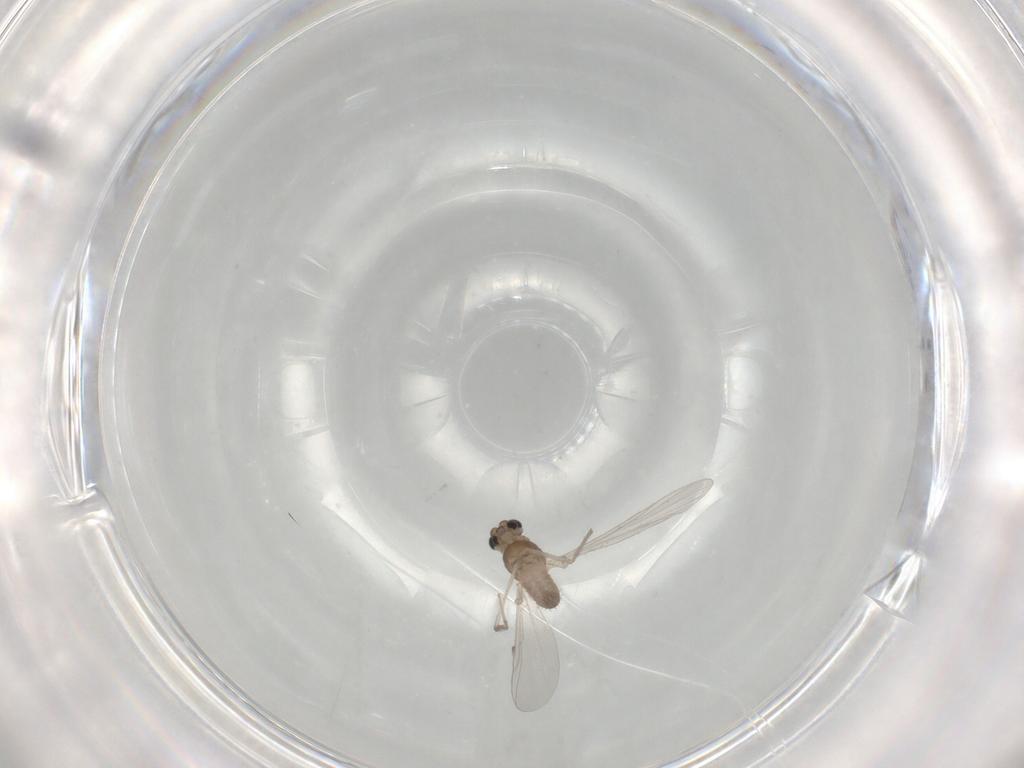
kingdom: Animalia
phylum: Arthropoda
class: Insecta
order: Diptera
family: Chironomidae
